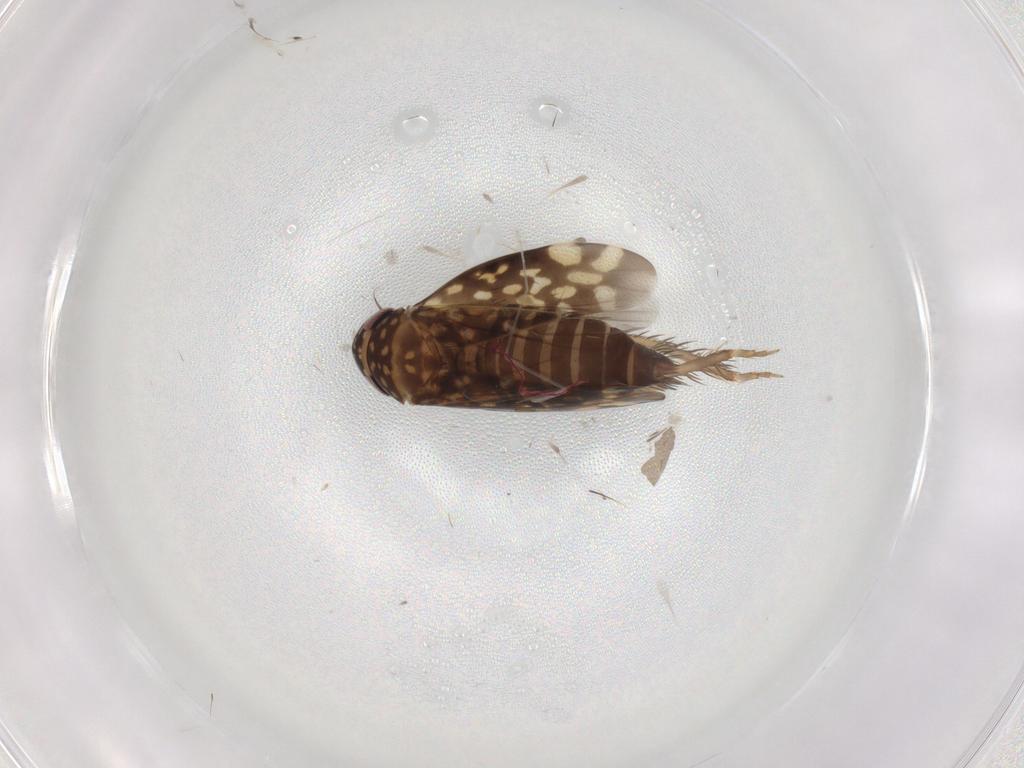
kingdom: Animalia
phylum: Arthropoda
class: Insecta
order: Hemiptera
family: Cicadellidae
